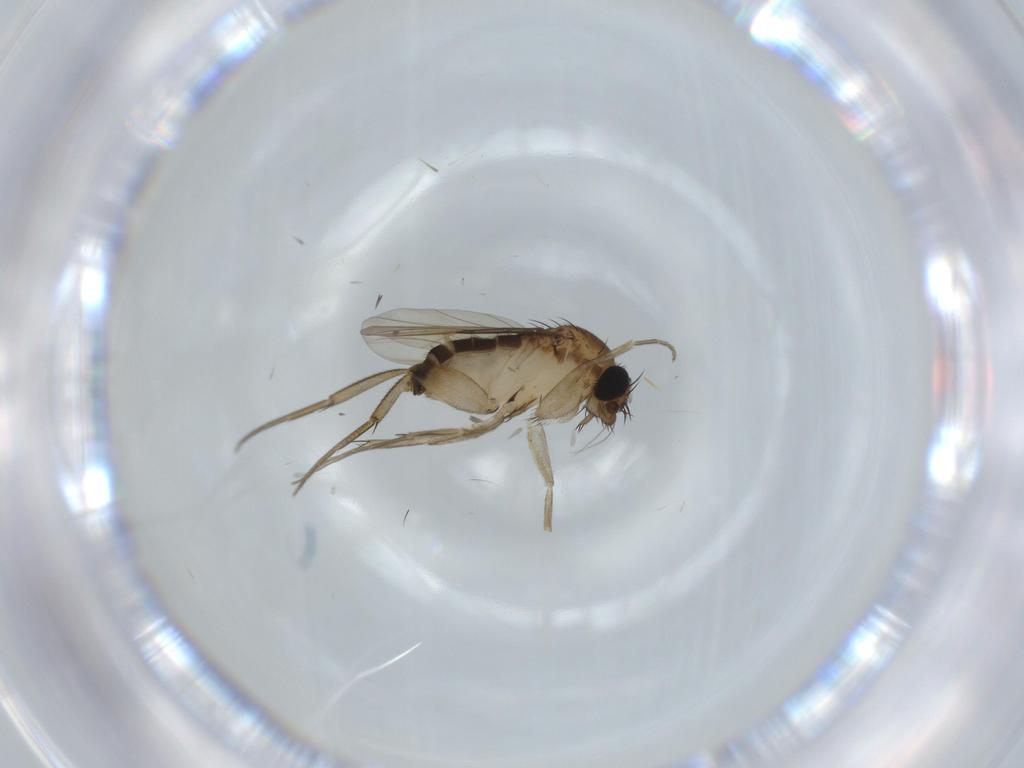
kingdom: Animalia
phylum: Arthropoda
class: Insecta
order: Diptera
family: Phoridae
